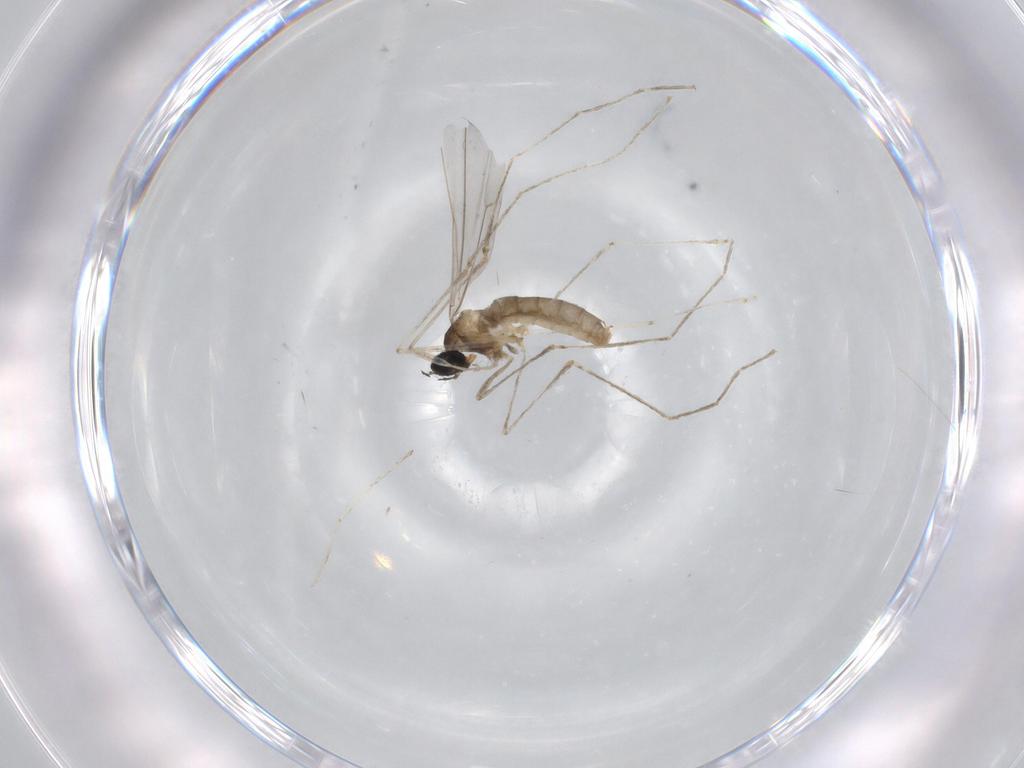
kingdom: Animalia
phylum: Arthropoda
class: Insecta
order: Diptera
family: Cecidomyiidae
